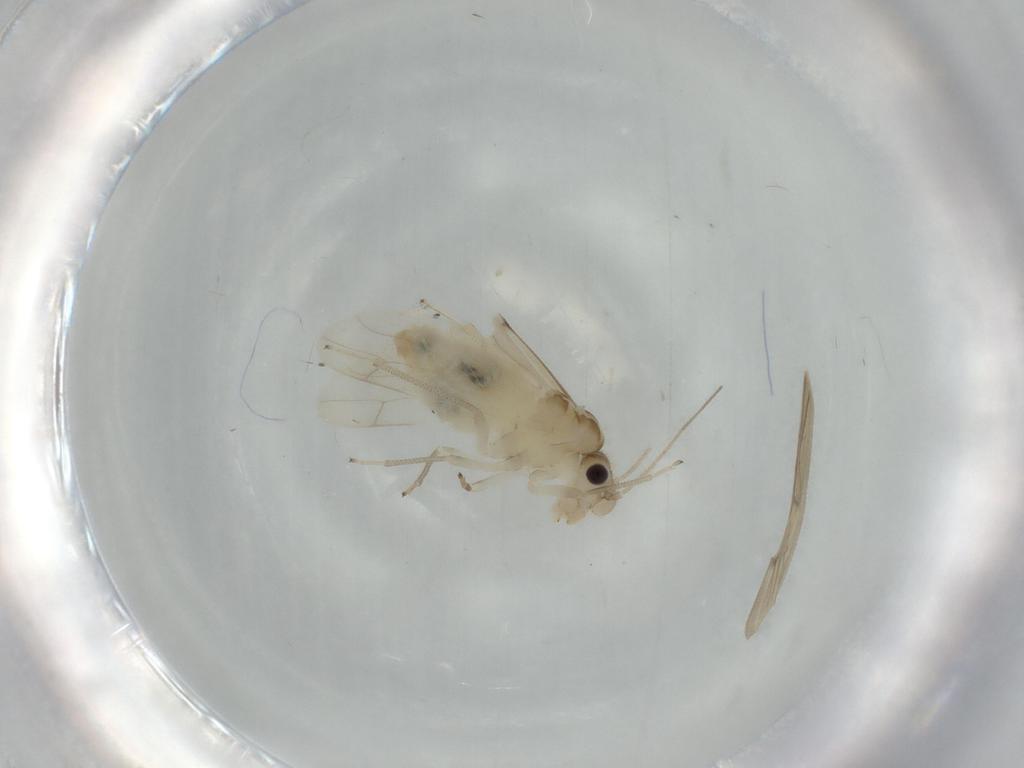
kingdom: Animalia
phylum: Arthropoda
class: Insecta
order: Psocodea
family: Caeciliusidae
